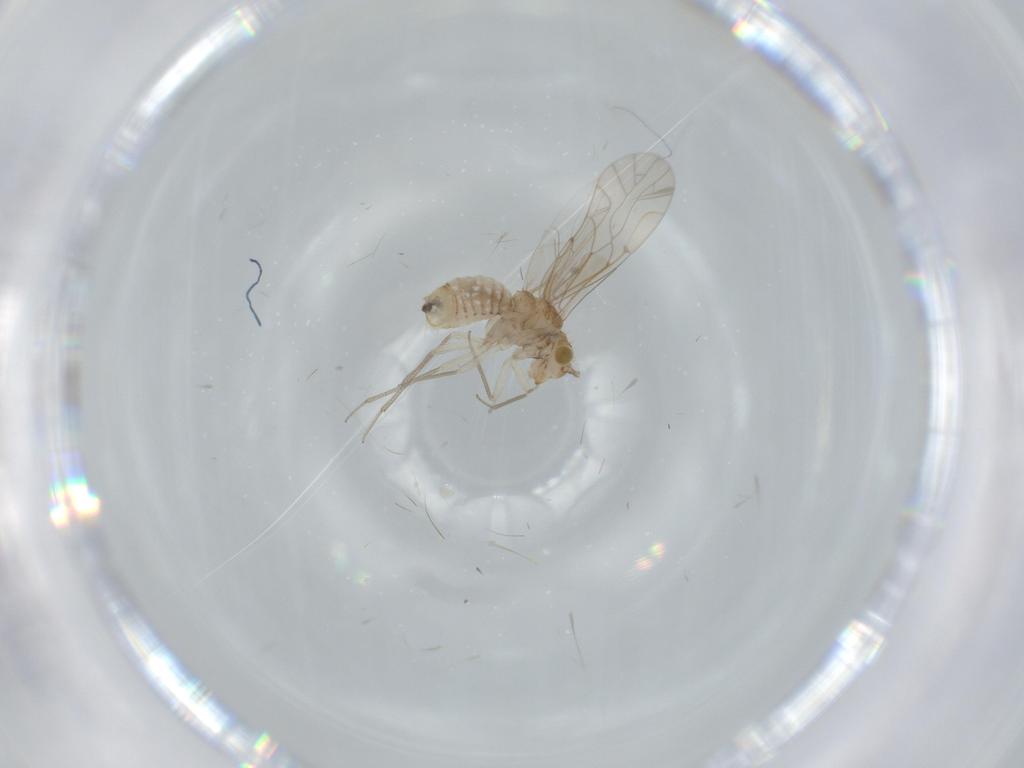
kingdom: Animalia
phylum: Arthropoda
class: Insecta
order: Psocodea
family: Lachesillidae
